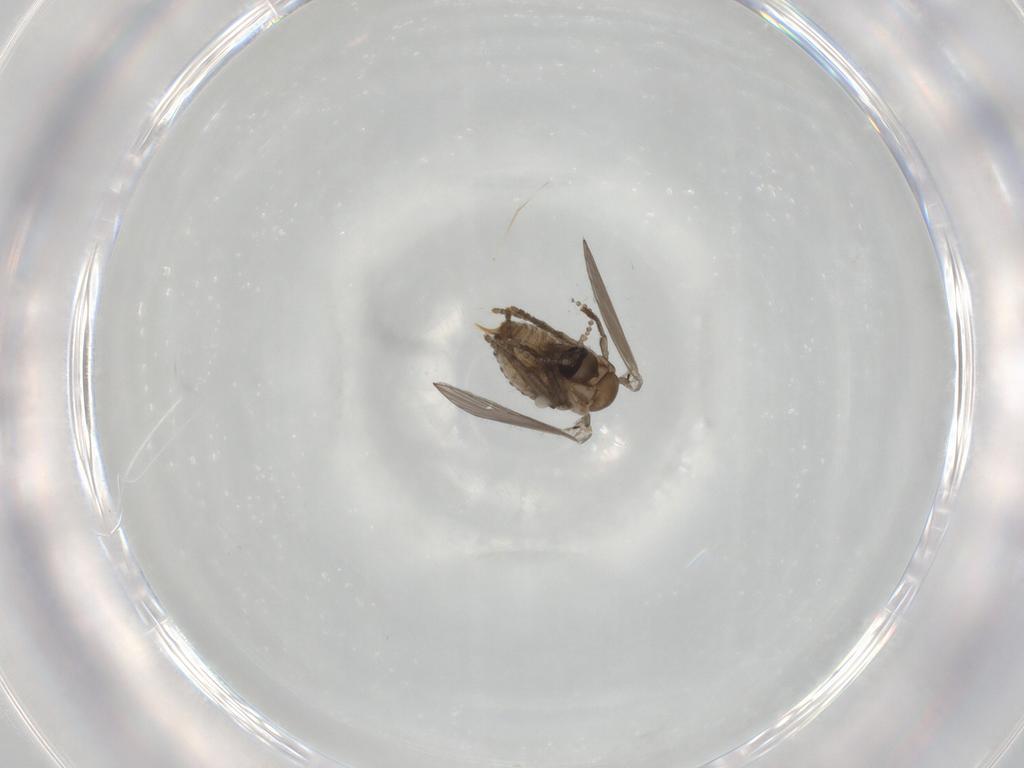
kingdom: Animalia
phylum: Arthropoda
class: Insecta
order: Diptera
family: Psychodidae
